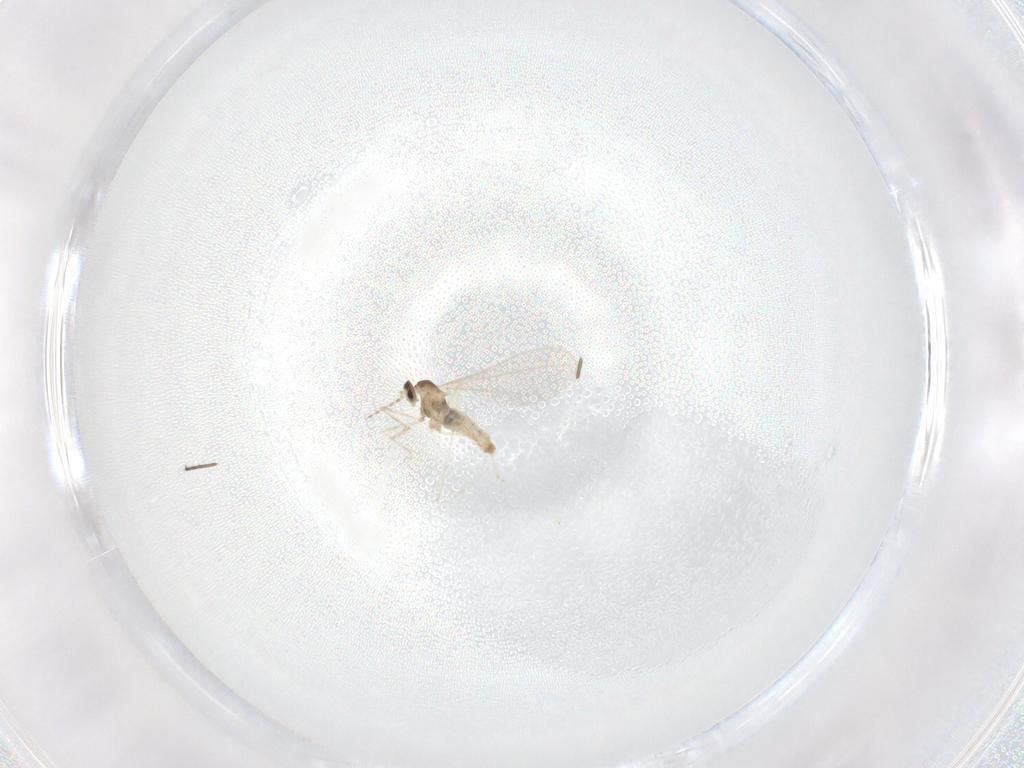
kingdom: Animalia
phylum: Arthropoda
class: Insecta
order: Diptera
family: Cecidomyiidae
